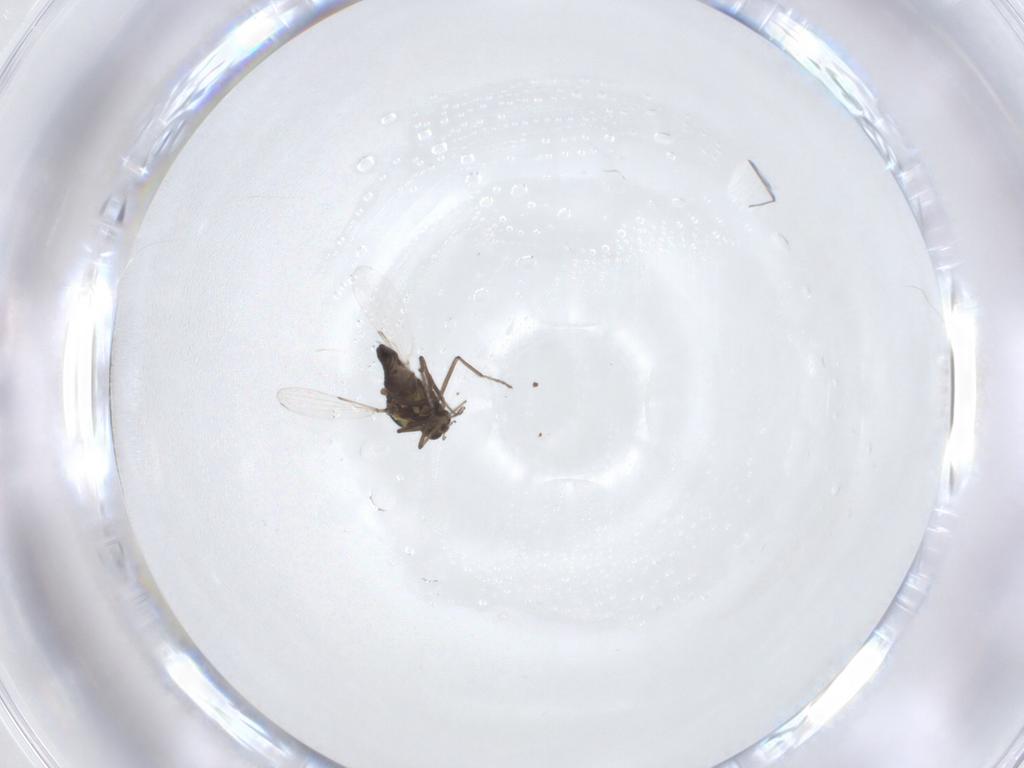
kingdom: Animalia
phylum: Arthropoda
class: Insecta
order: Diptera
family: Ceratopogonidae
